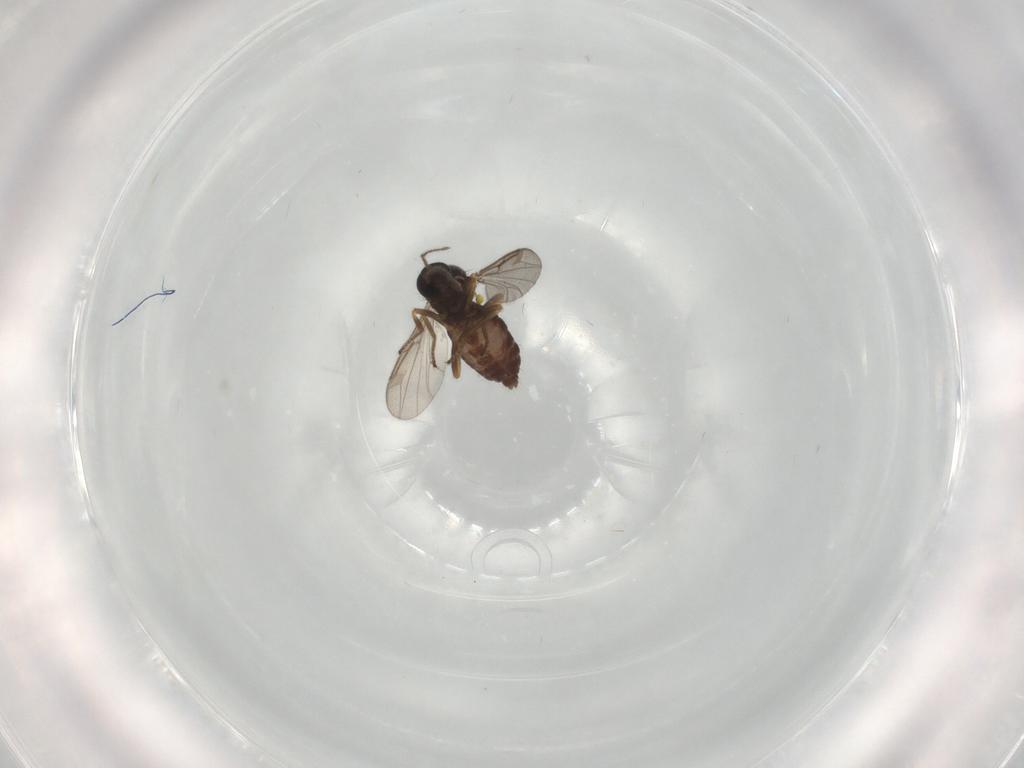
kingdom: Animalia
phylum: Arthropoda
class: Insecta
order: Diptera
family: Ceratopogonidae
